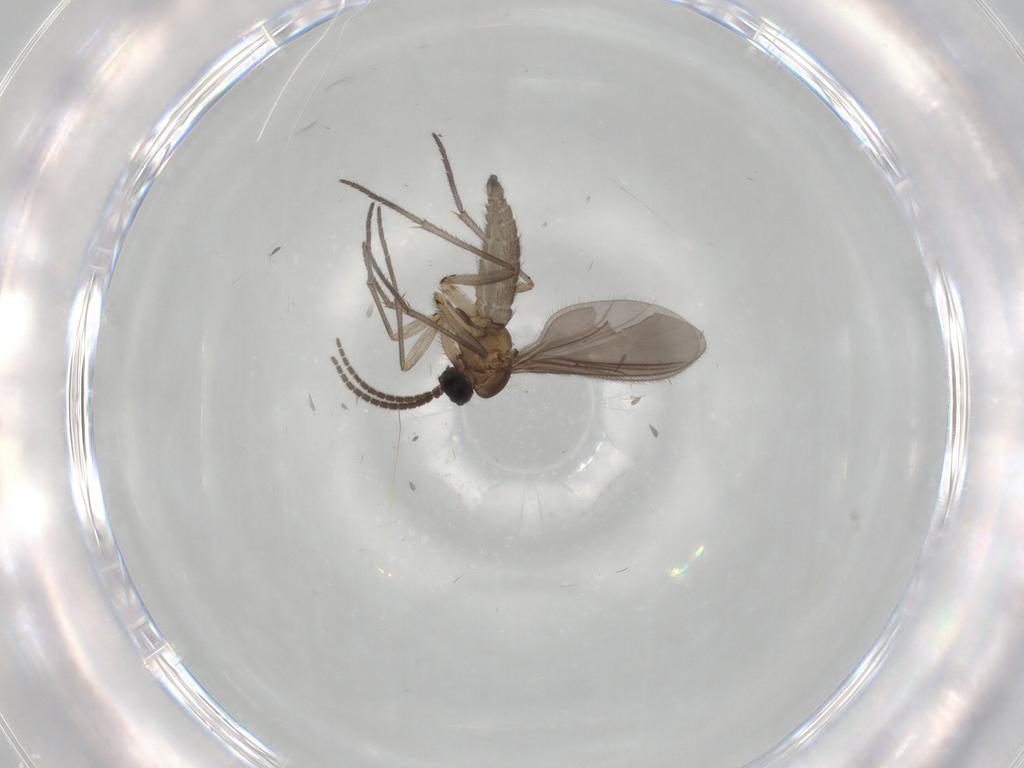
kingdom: Animalia
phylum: Arthropoda
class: Insecta
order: Diptera
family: Sciaridae
